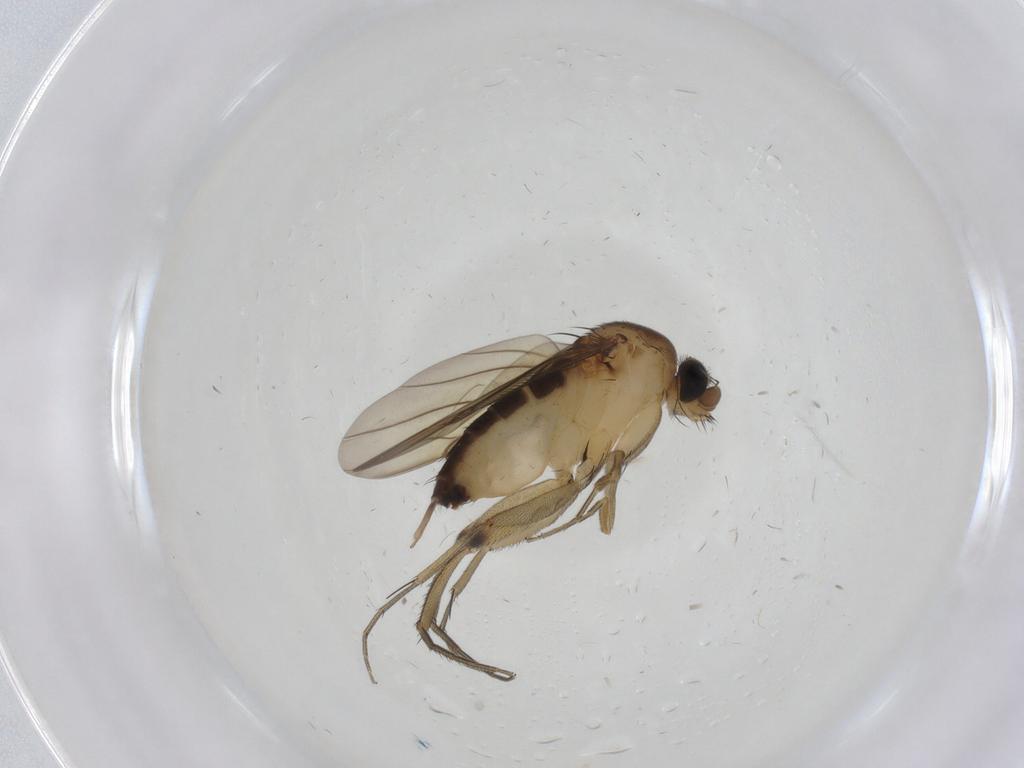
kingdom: Animalia
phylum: Arthropoda
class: Insecta
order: Diptera
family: Phoridae
